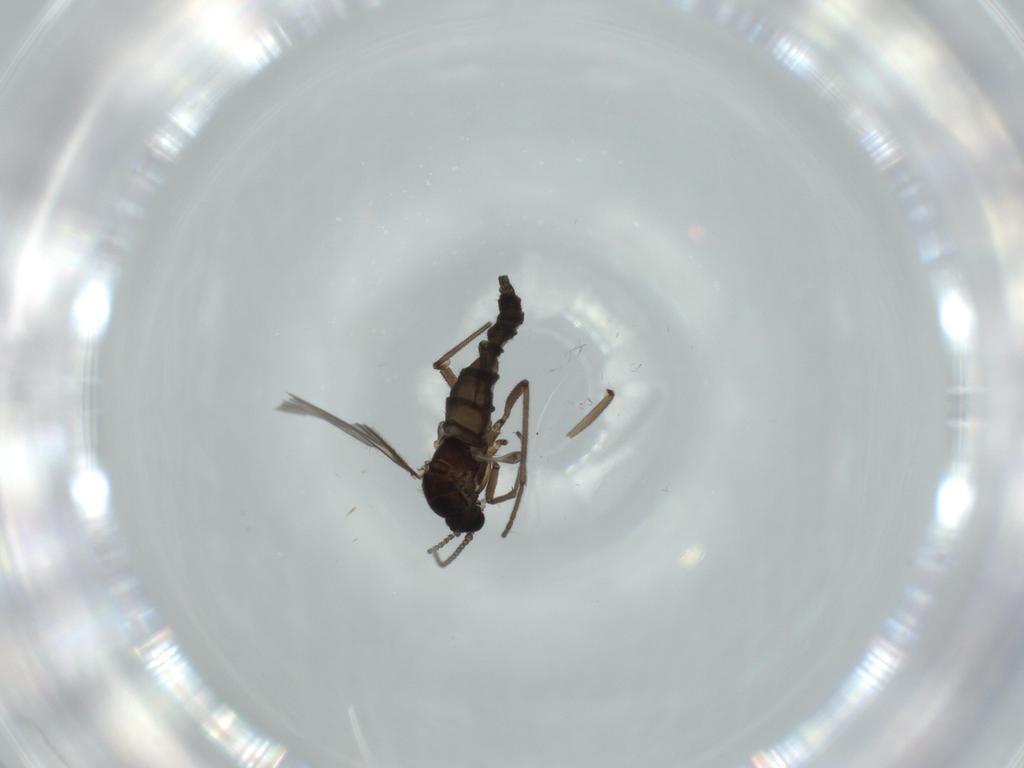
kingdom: Animalia
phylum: Arthropoda
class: Insecta
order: Diptera
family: Sciaridae
